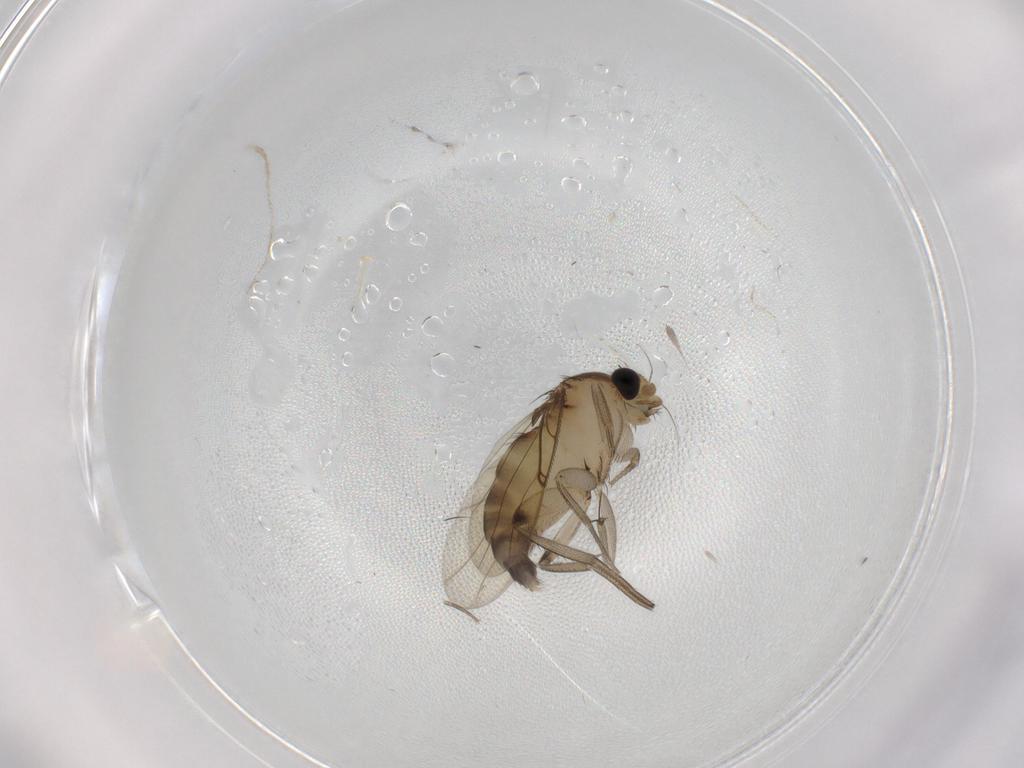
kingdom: Animalia
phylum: Arthropoda
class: Insecta
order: Diptera
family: Phoridae
